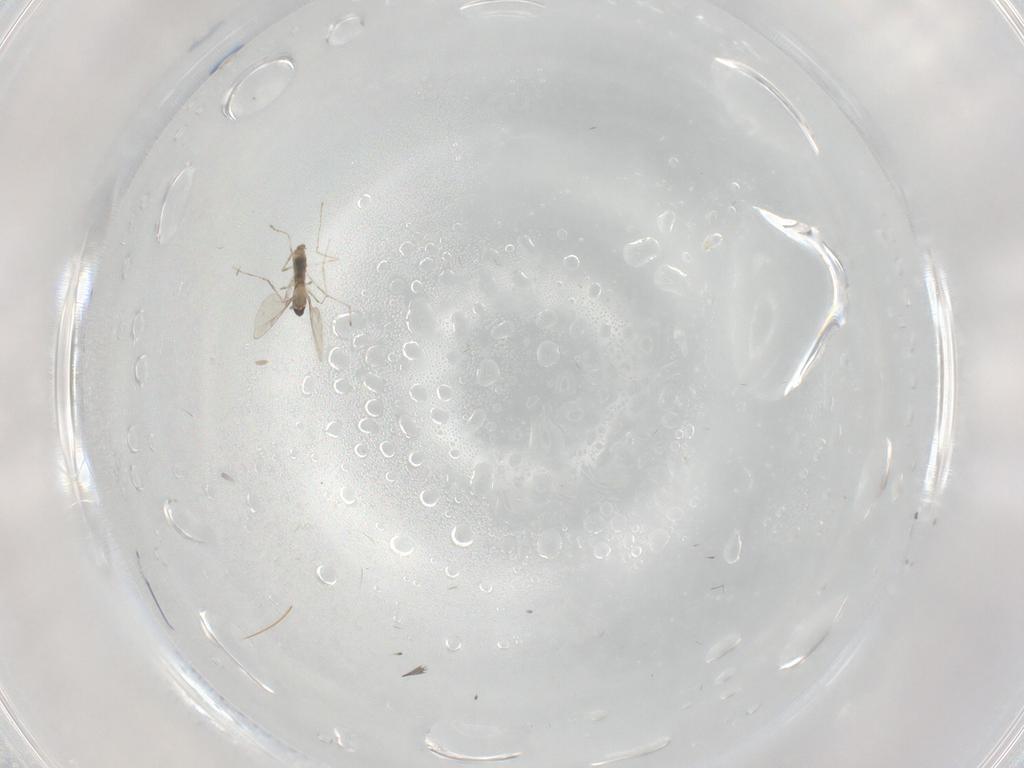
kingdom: Animalia
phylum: Arthropoda
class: Insecta
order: Diptera
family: Cecidomyiidae
